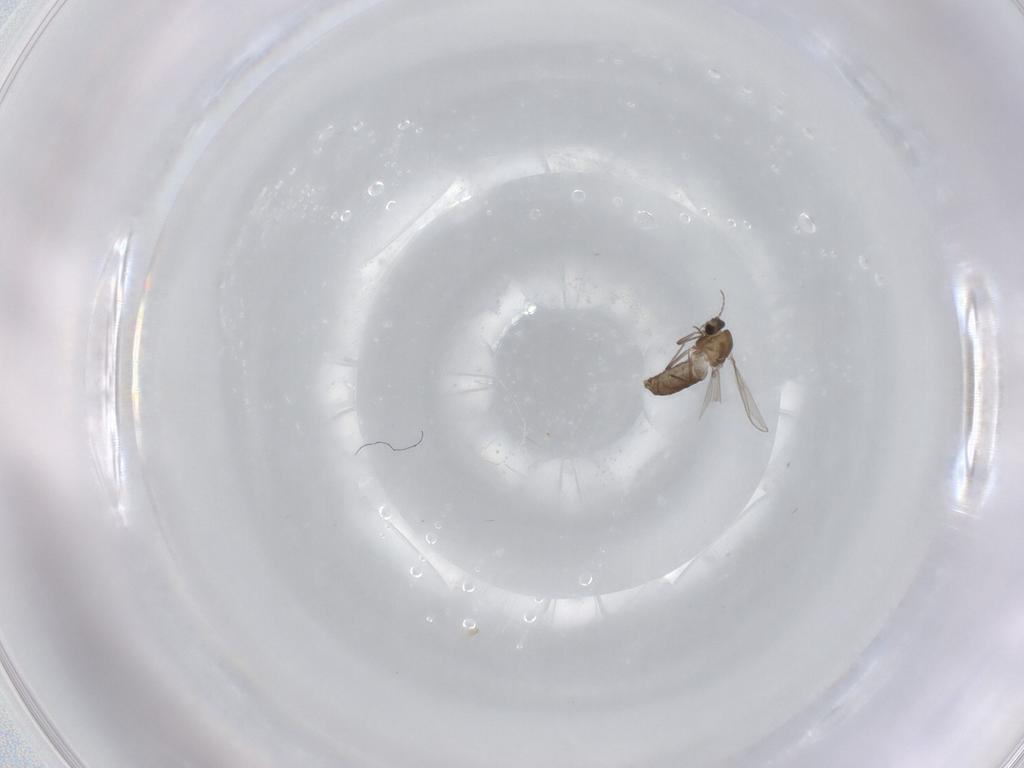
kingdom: Animalia
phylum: Arthropoda
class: Insecta
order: Diptera
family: Chironomidae
